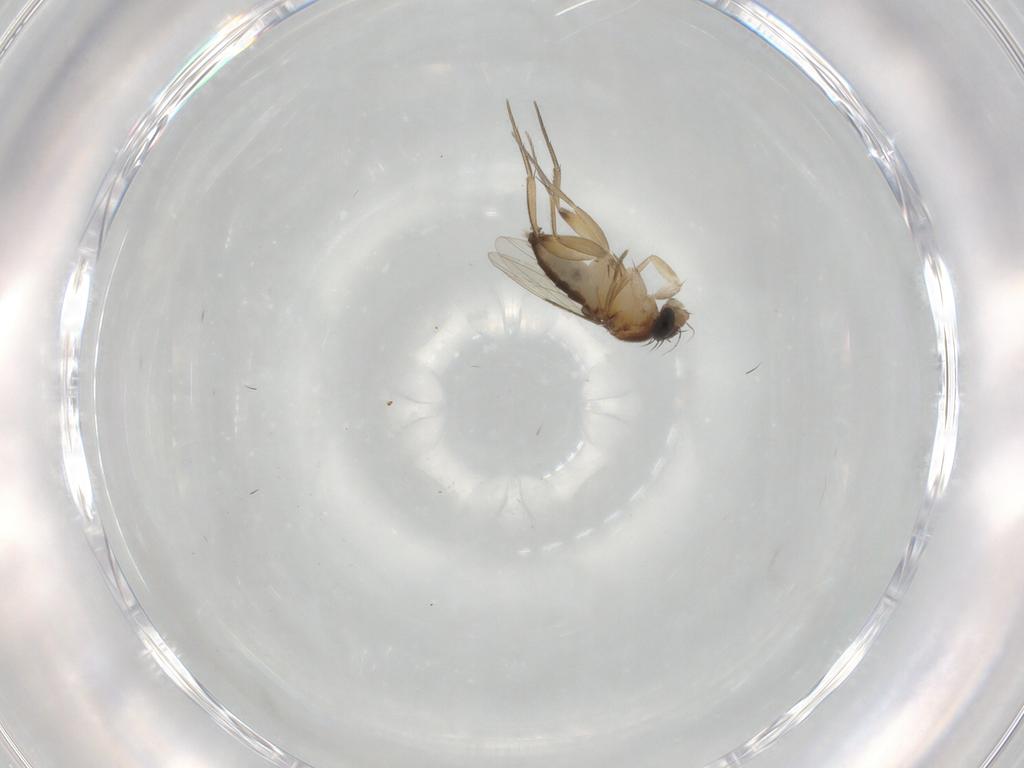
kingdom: Animalia
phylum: Arthropoda
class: Insecta
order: Diptera
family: Phoridae
